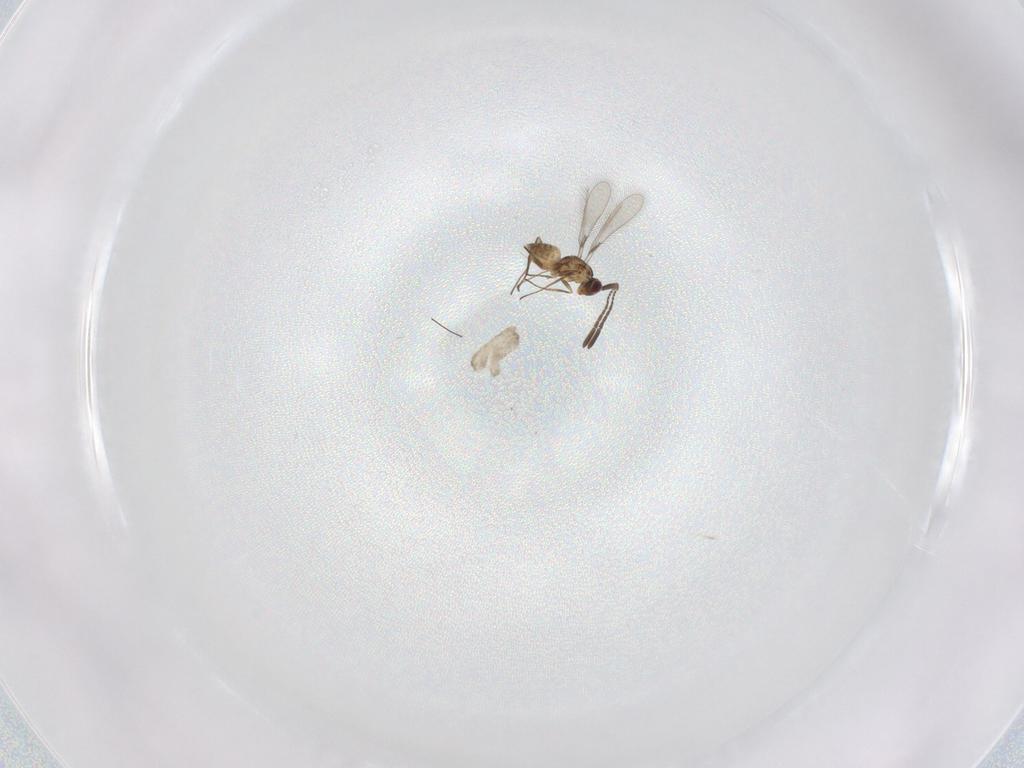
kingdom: Animalia
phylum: Arthropoda
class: Insecta
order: Hymenoptera
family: Mymaridae
